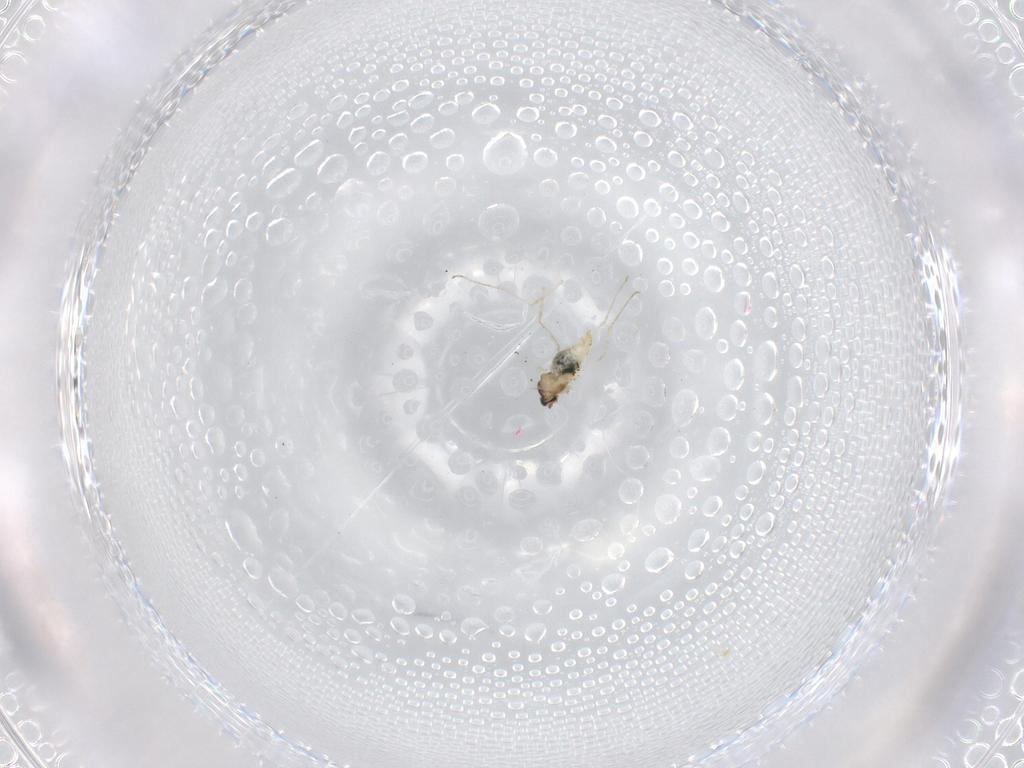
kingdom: Animalia
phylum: Arthropoda
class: Insecta
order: Diptera
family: Cecidomyiidae
